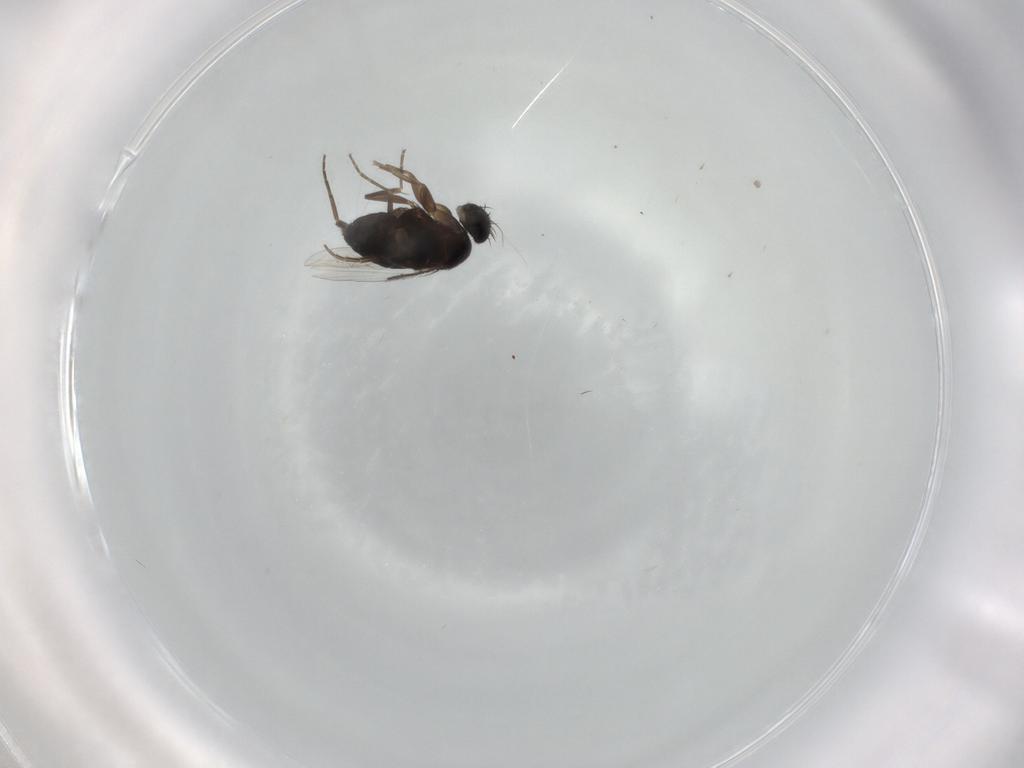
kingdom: Animalia
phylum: Arthropoda
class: Insecta
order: Diptera
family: Phoridae
